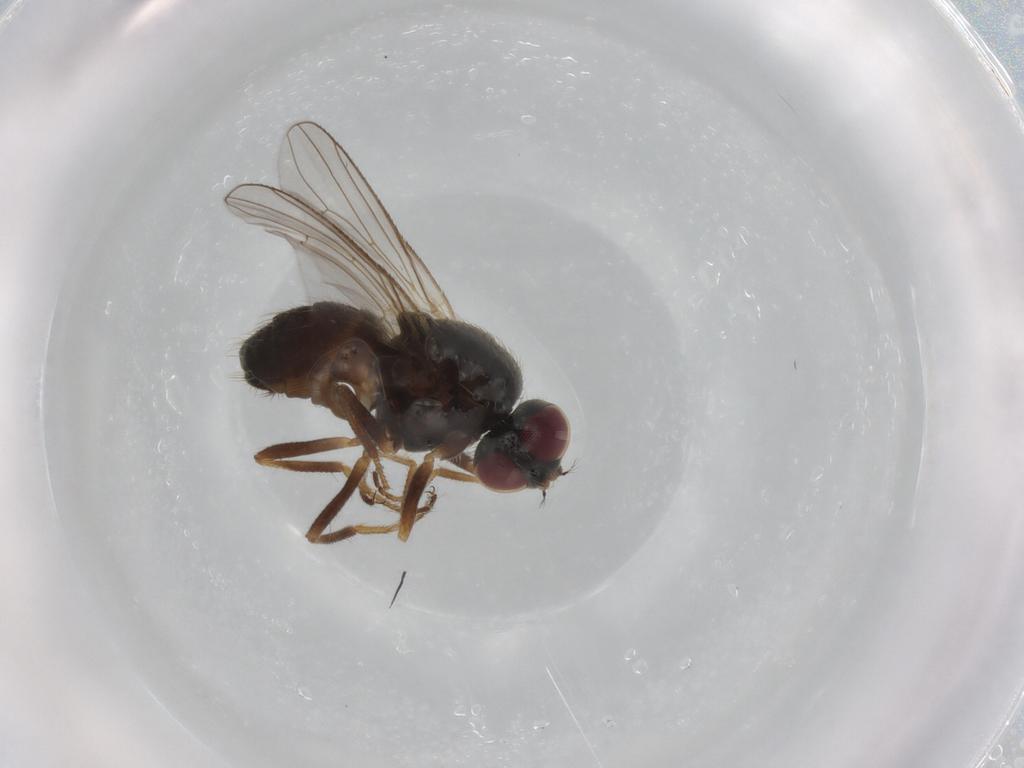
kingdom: Animalia
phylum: Arthropoda
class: Insecta
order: Diptera
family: Muscidae
